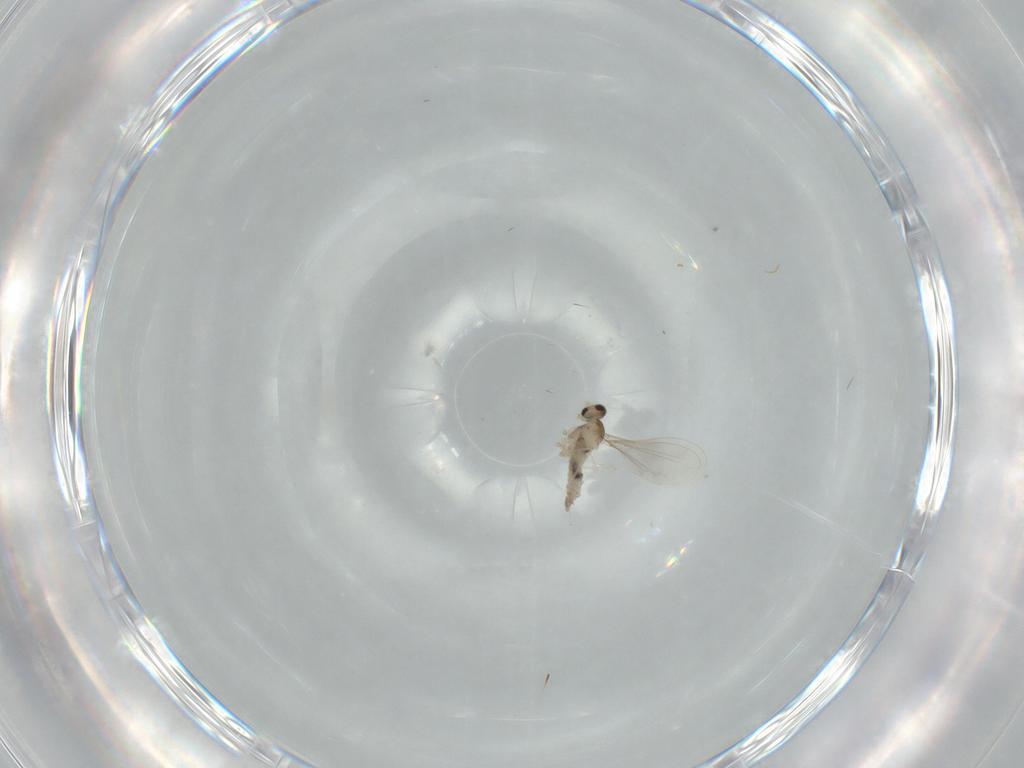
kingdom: Animalia
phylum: Arthropoda
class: Insecta
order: Diptera
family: Cecidomyiidae
